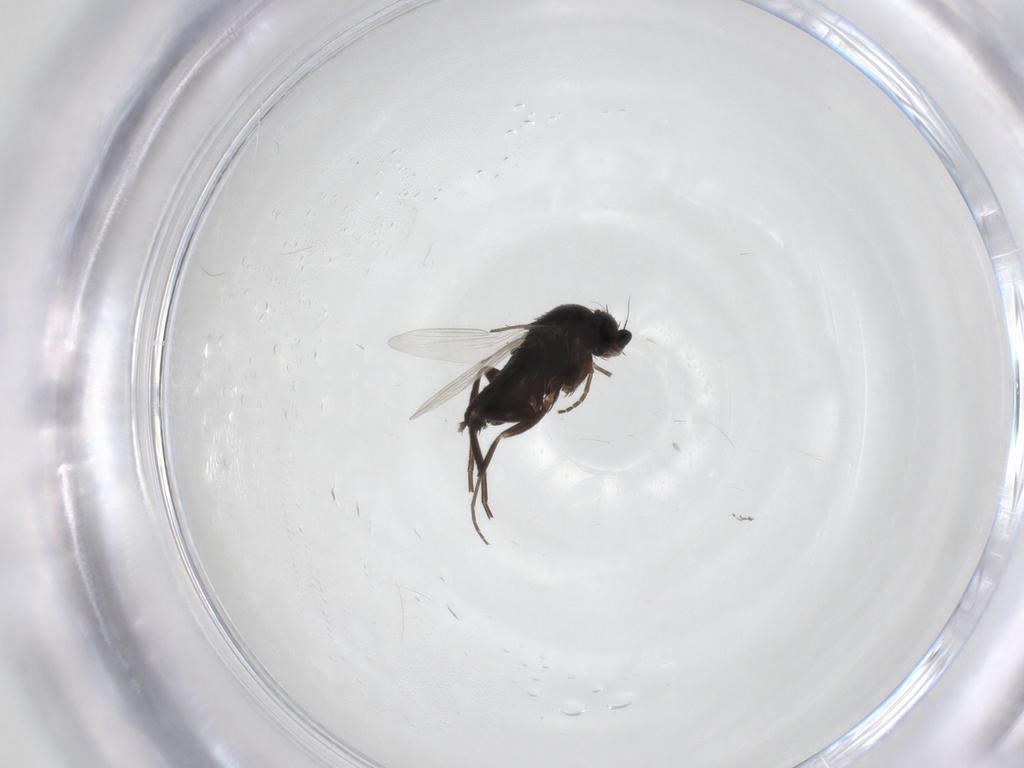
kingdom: Animalia
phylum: Arthropoda
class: Insecta
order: Diptera
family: Phoridae
